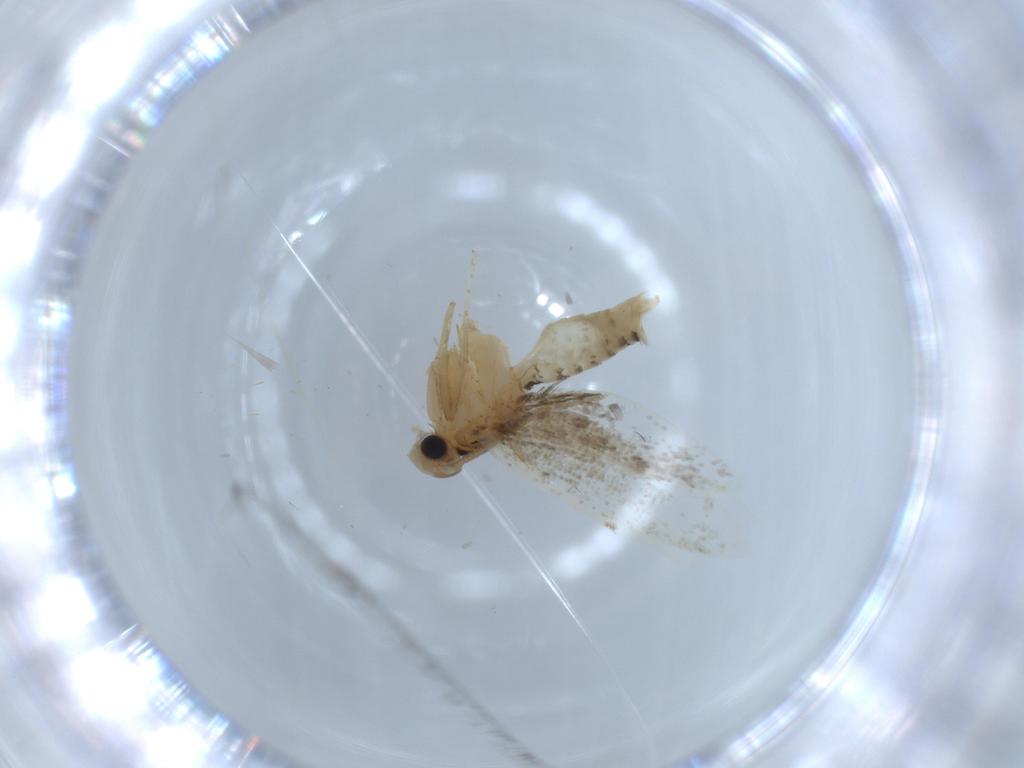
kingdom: Animalia
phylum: Arthropoda
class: Insecta
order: Lepidoptera
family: Tineidae
